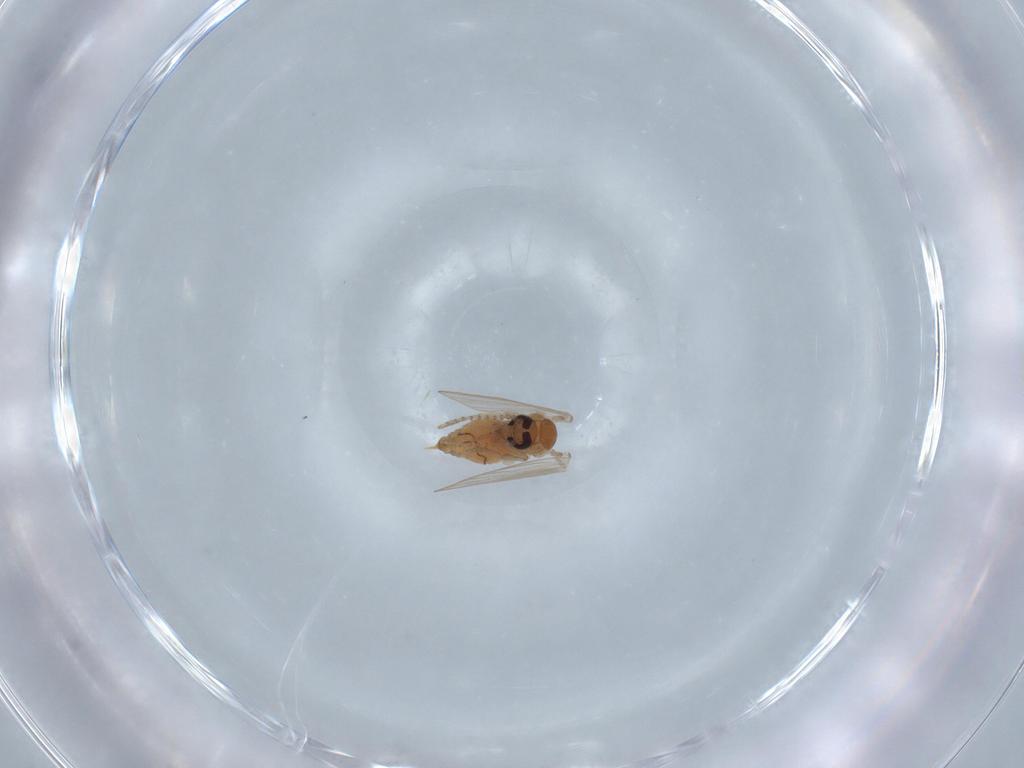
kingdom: Animalia
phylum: Arthropoda
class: Insecta
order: Diptera
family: Psychodidae
